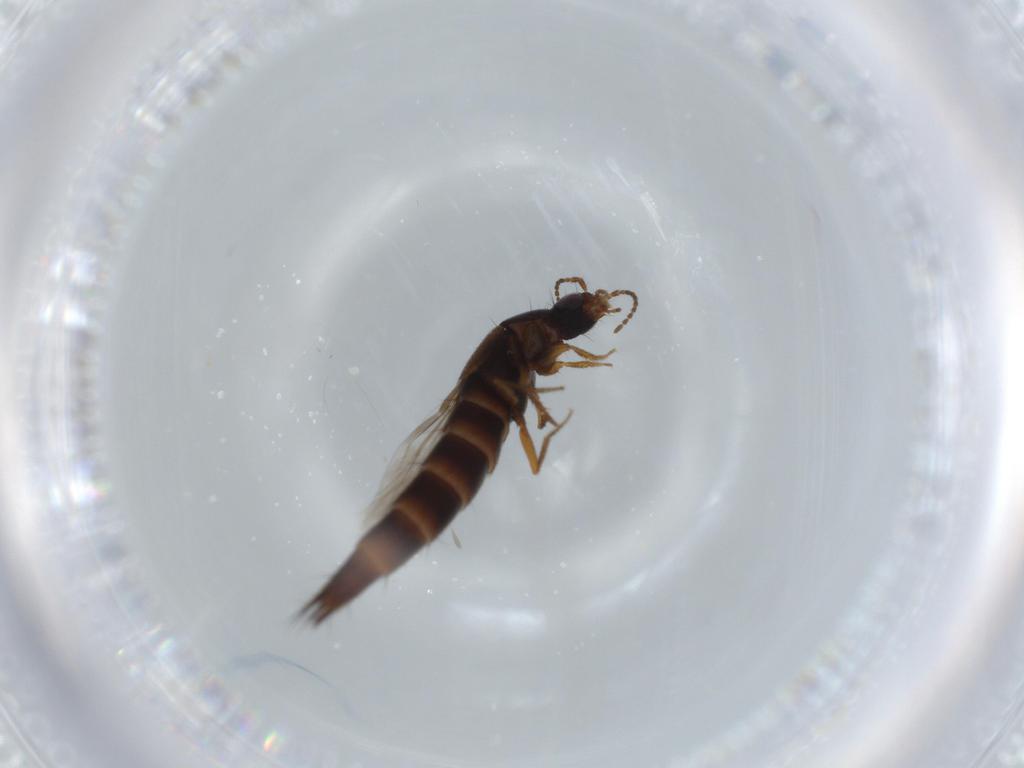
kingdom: Animalia
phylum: Arthropoda
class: Insecta
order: Coleoptera
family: Staphylinidae
